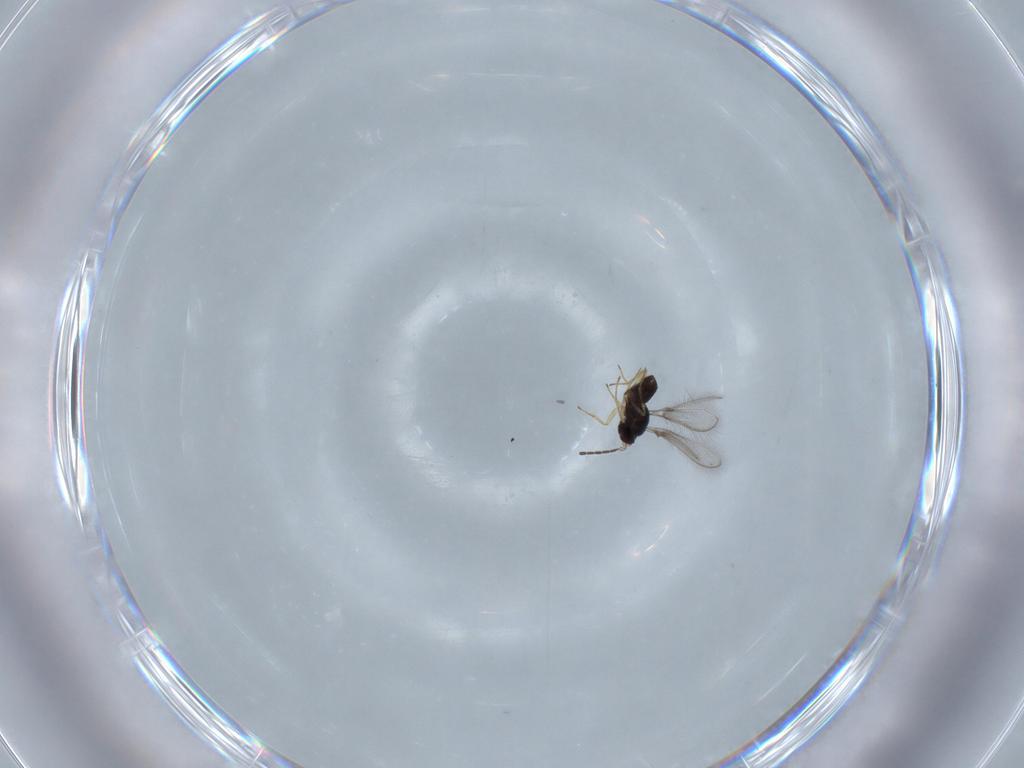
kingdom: Animalia
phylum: Arthropoda
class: Insecta
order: Hymenoptera
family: Mymaridae
